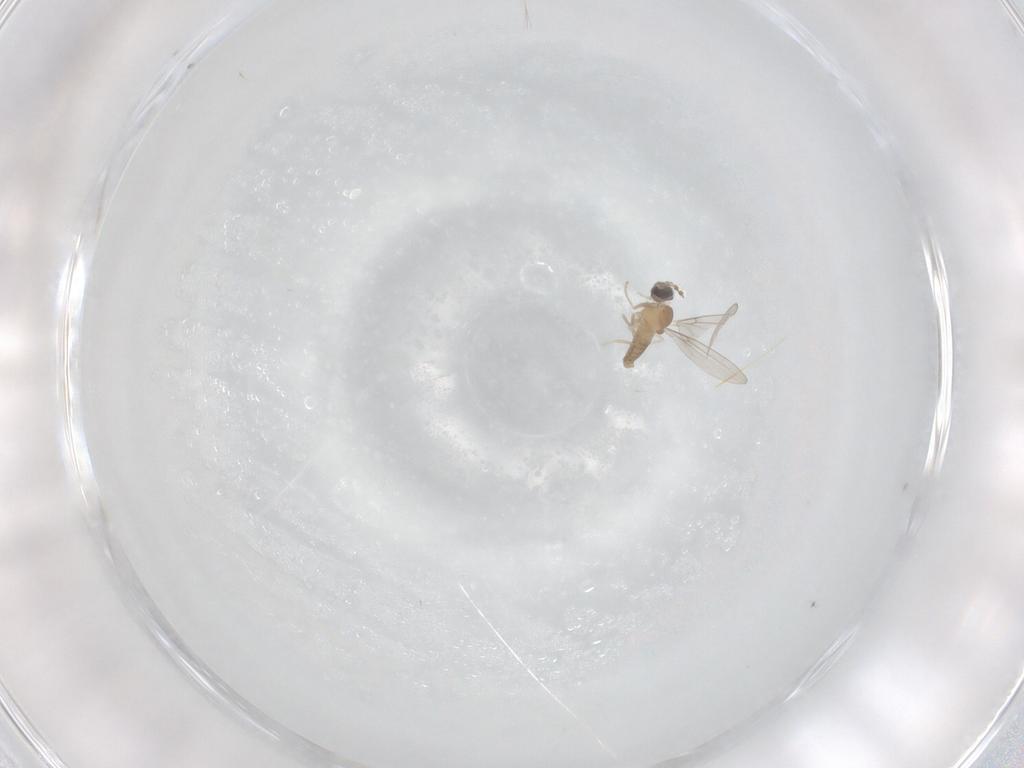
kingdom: Animalia
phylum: Arthropoda
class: Insecta
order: Diptera
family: Cecidomyiidae
